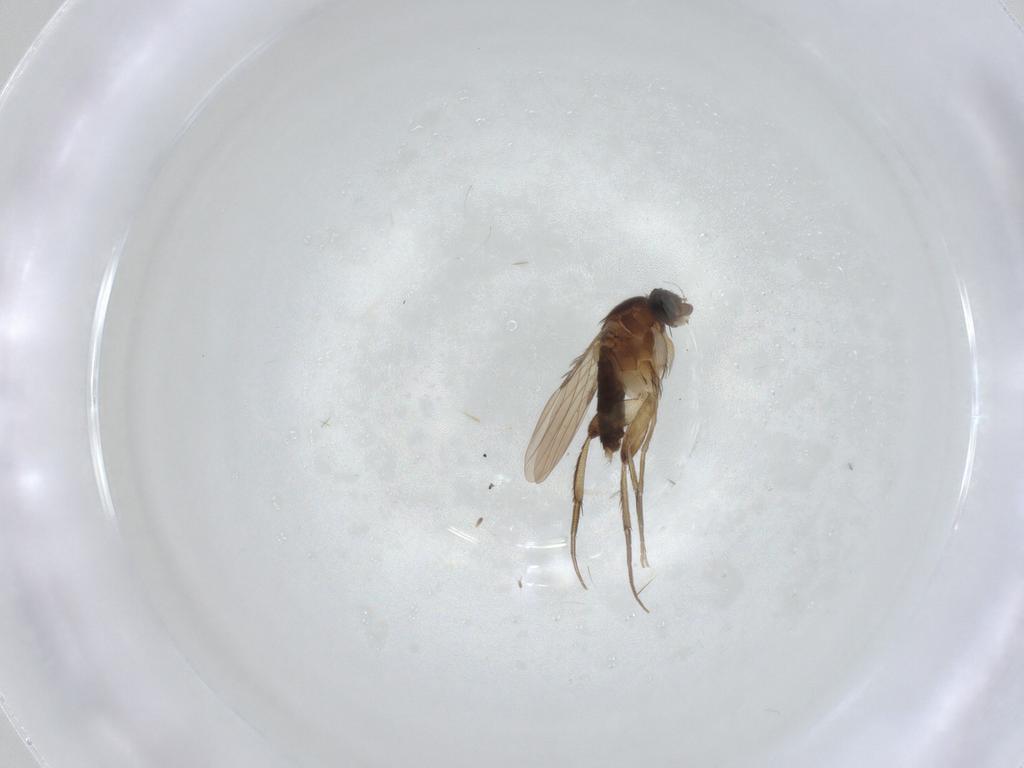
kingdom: Animalia
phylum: Arthropoda
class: Insecta
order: Diptera
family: Phoridae
